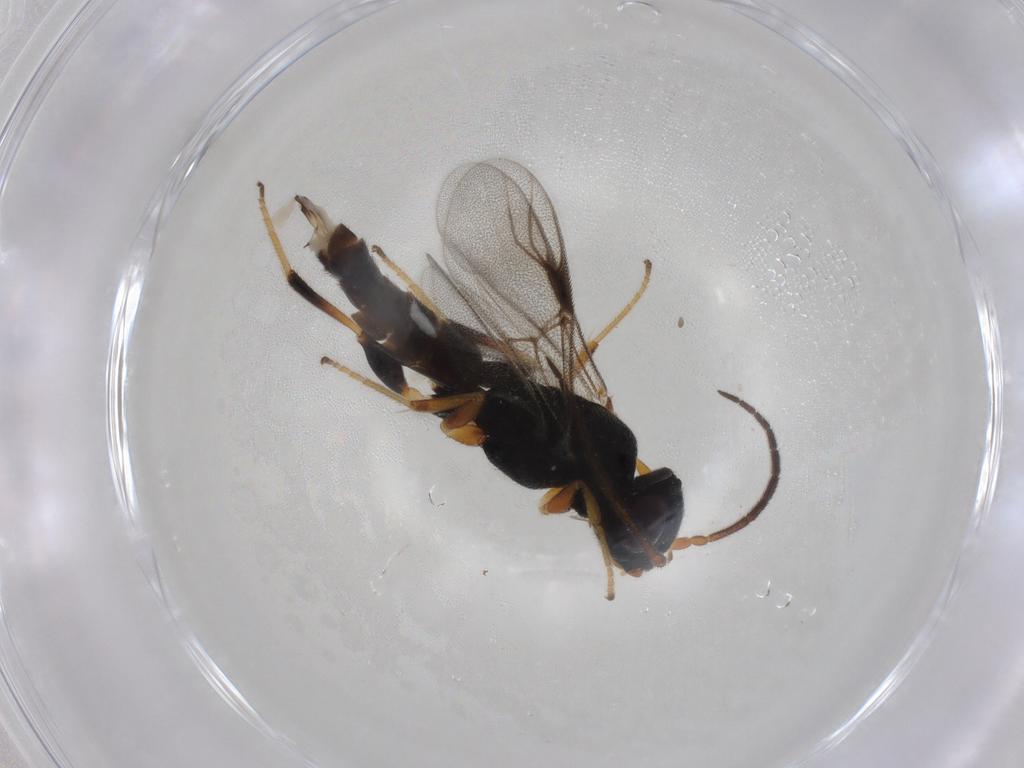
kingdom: Animalia
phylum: Arthropoda
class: Insecta
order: Hymenoptera
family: Dryinidae
